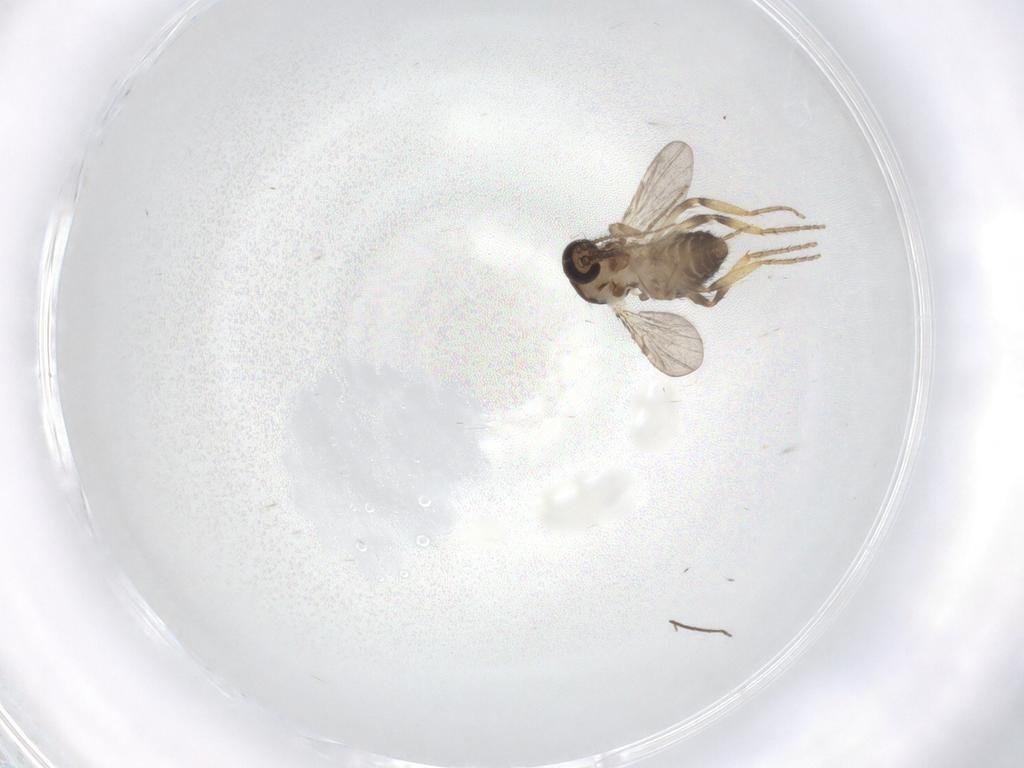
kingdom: Animalia
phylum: Arthropoda
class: Insecta
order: Diptera
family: Ceratopogonidae
